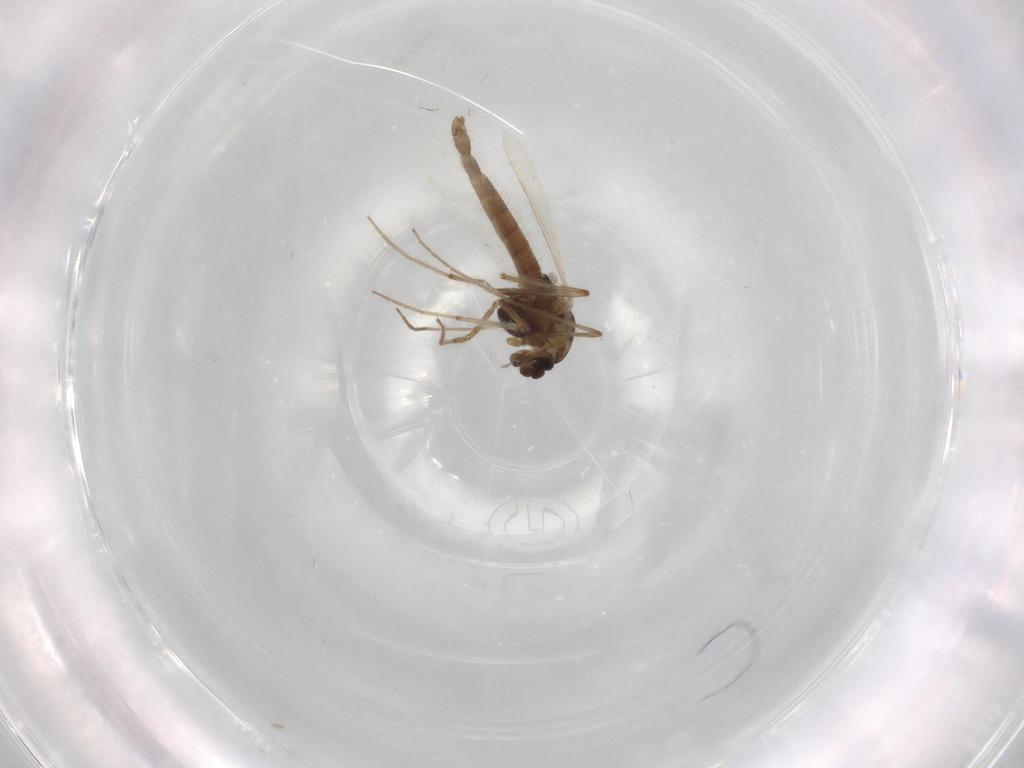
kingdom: Animalia
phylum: Arthropoda
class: Insecta
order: Diptera
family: Chironomidae
